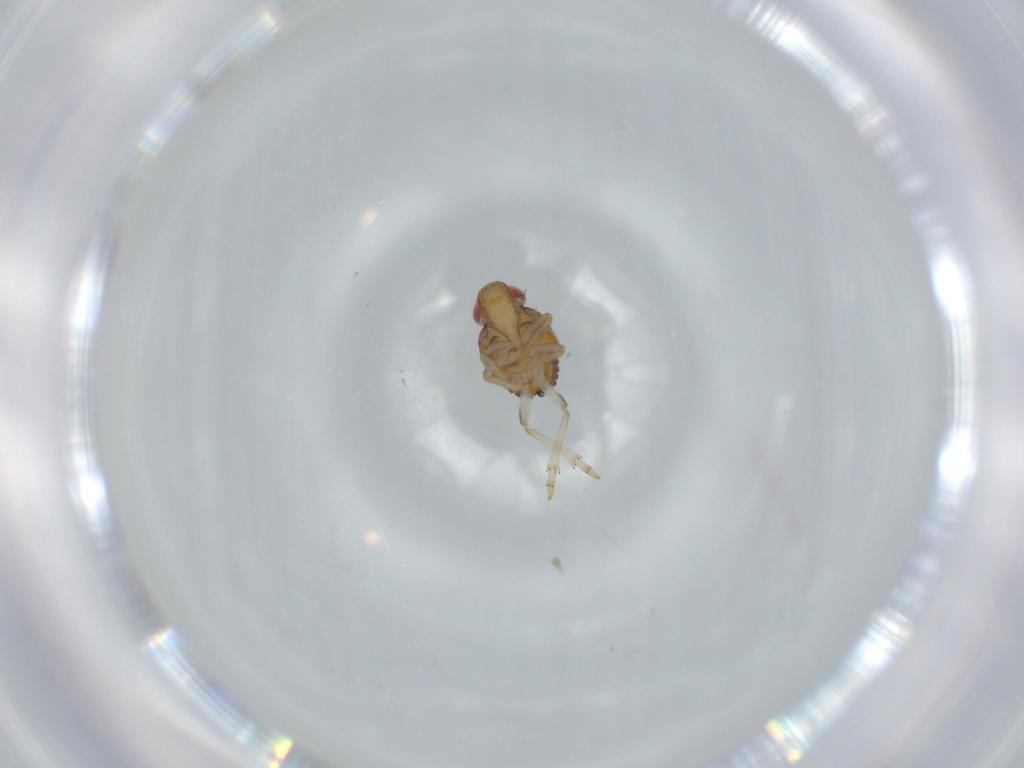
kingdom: Animalia
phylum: Arthropoda
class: Insecta
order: Hemiptera
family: Issidae
